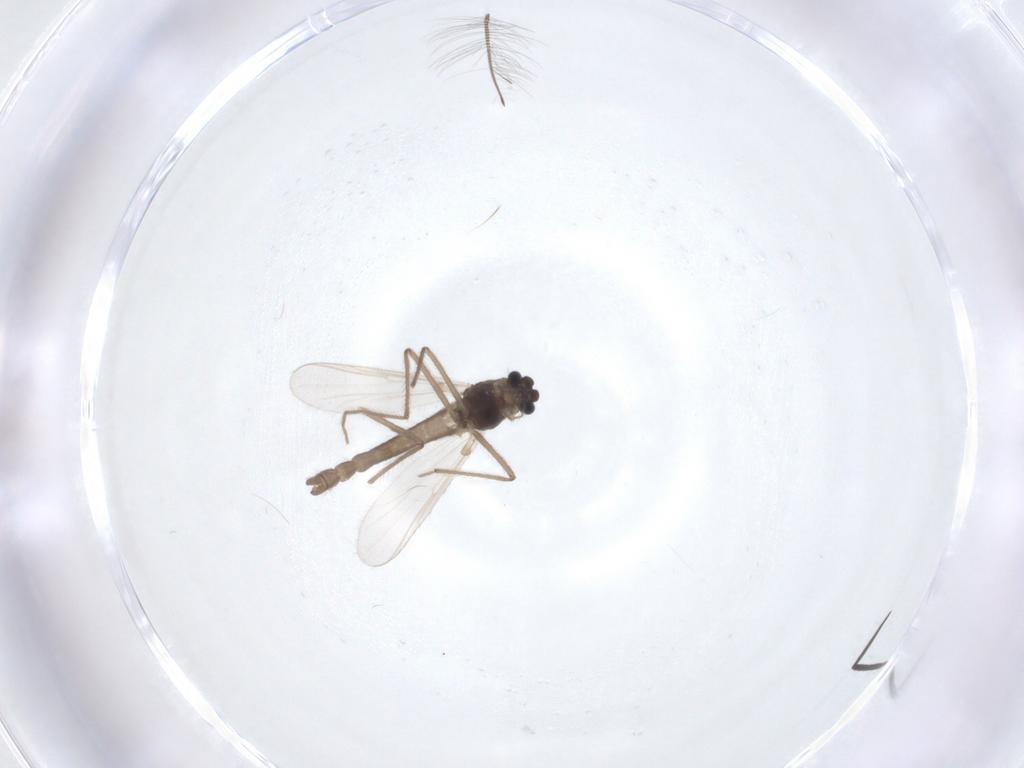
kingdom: Animalia
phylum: Arthropoda
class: Insecta
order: Diptera
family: Chironomidae
